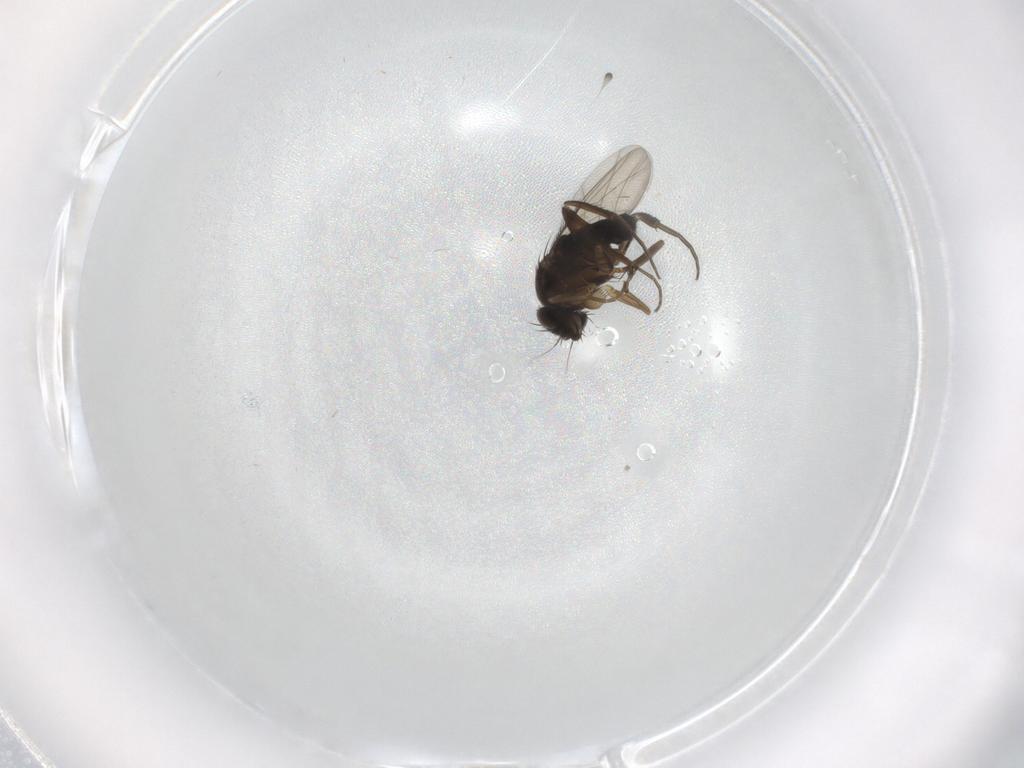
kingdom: Animalia
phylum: Arthropoda
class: Insecta
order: Diptera
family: Phoridae
